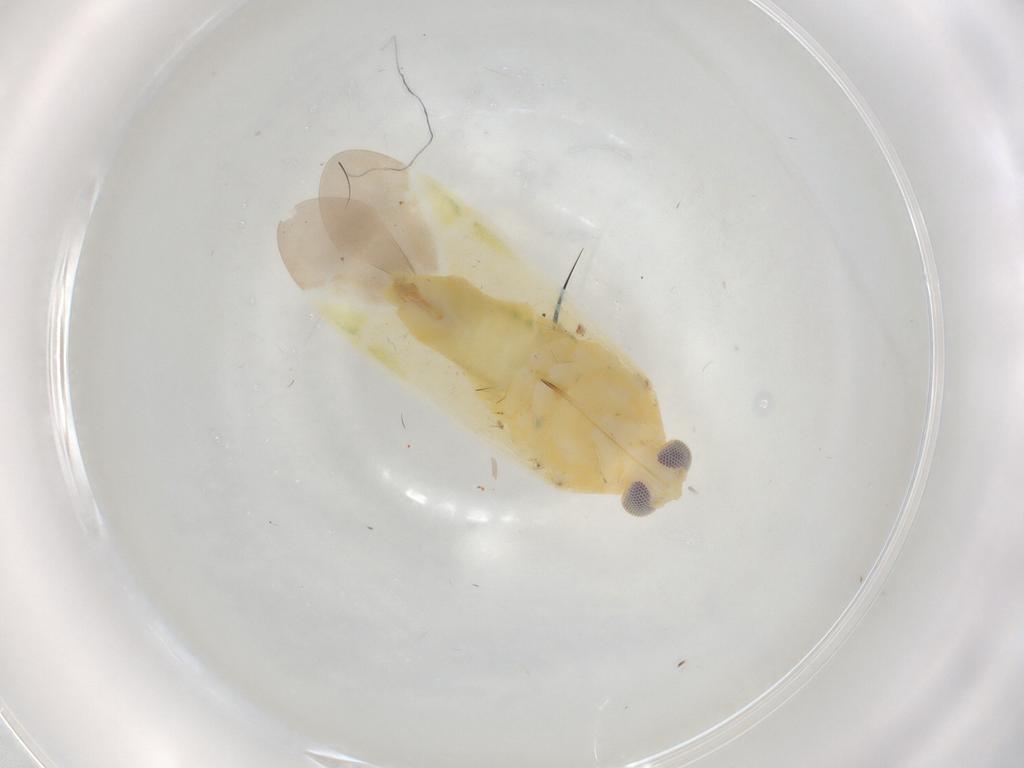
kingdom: Animalia
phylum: Arthropoda
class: Insecta
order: Hemiptera
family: Miridae
